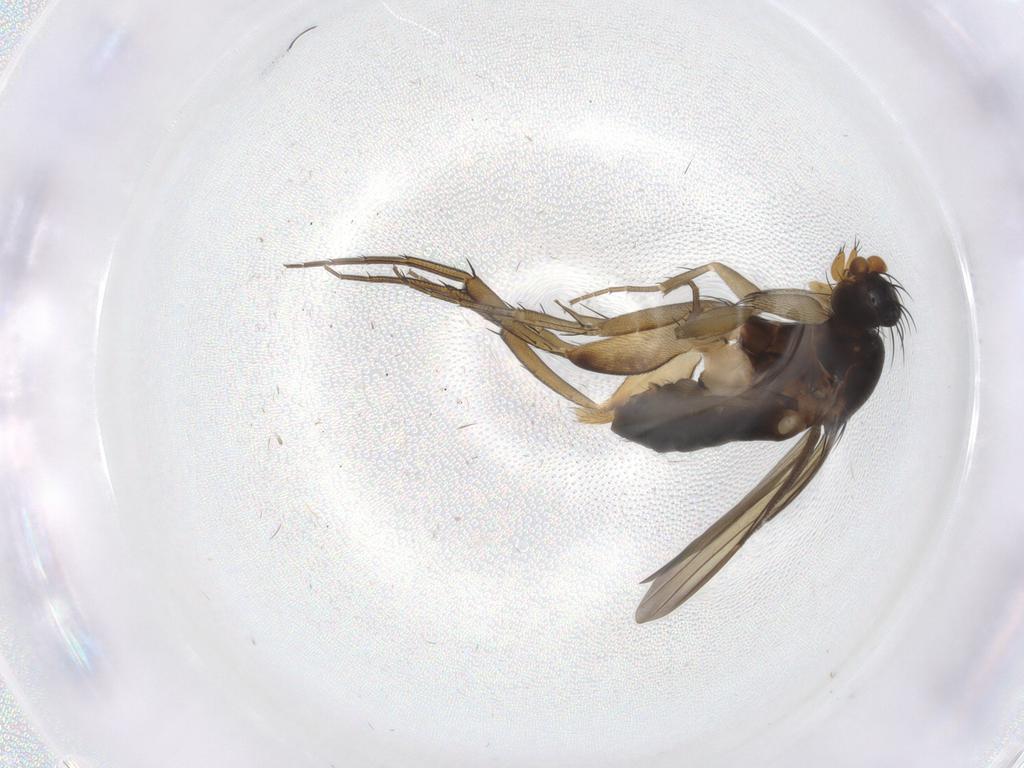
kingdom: Animalia
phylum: Arthropoda
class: Insecta
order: Diptera
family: Phoridae
